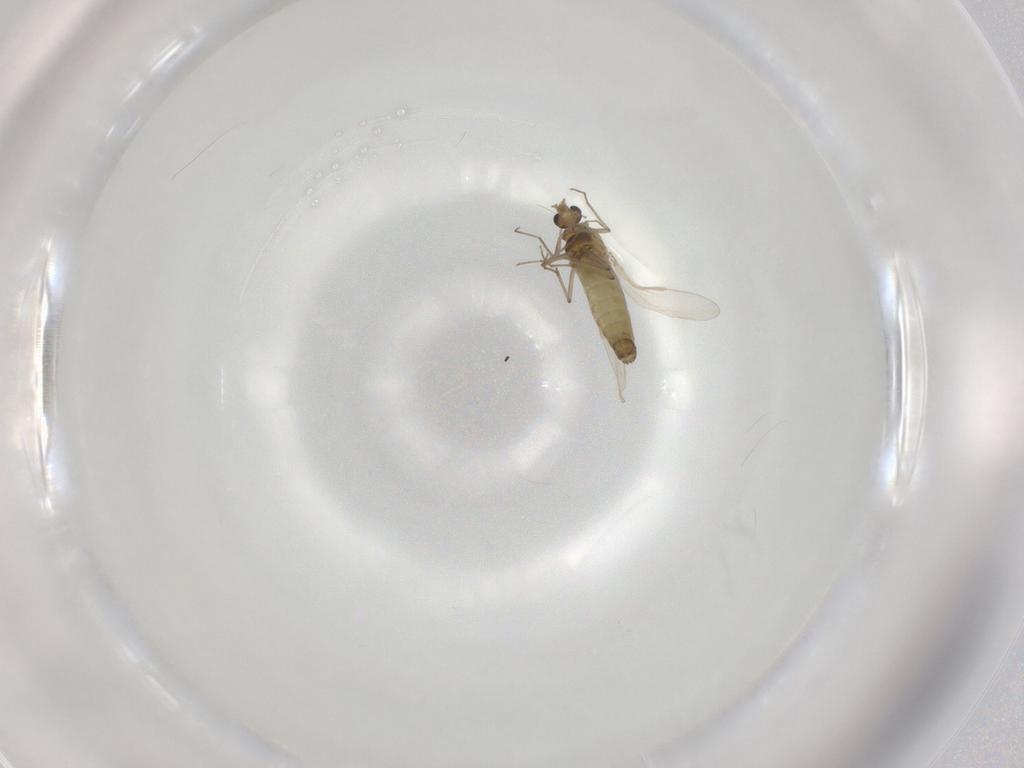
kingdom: Animalia
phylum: Arthropoda
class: Insecta
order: Diptera
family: Chironomidae
